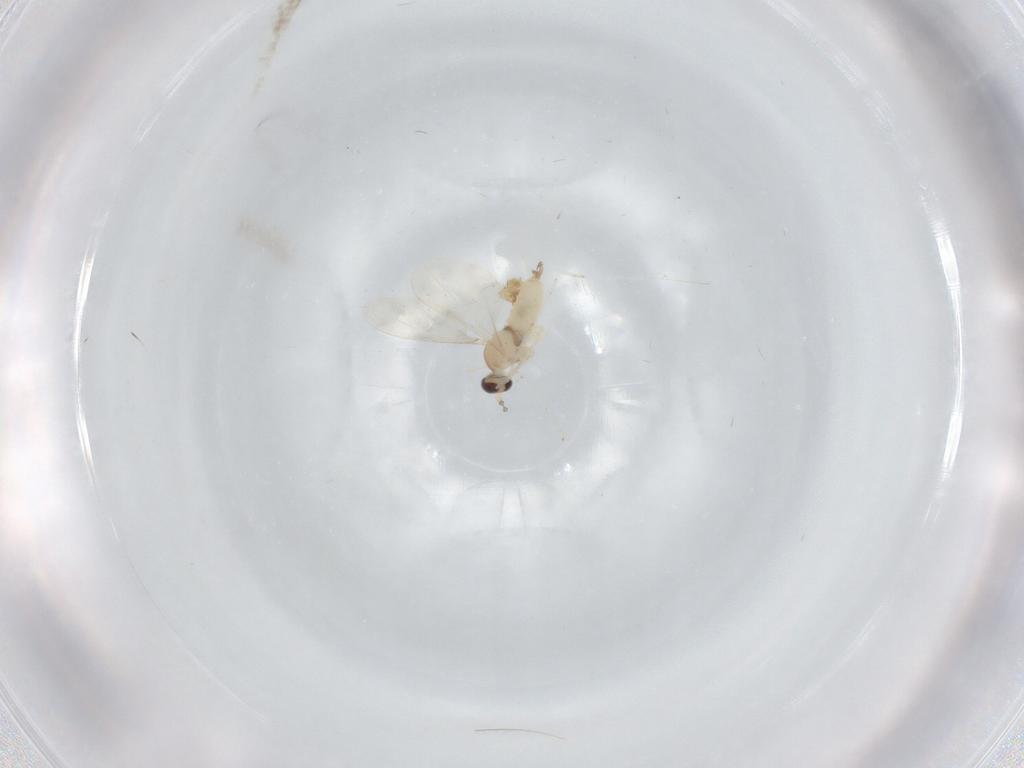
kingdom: Animalia
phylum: Arthropoda
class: Insecta
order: Diptera
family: Cecidomyiidae
